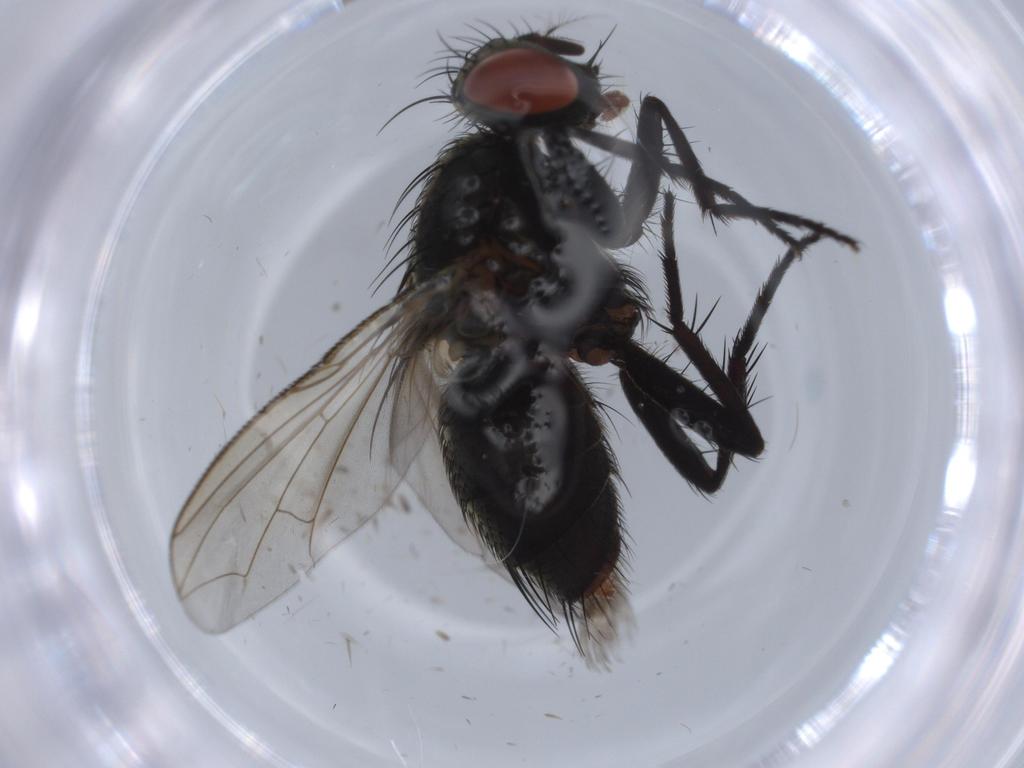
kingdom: Animalia
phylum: Arthropoda
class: Insecta
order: Diptera
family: Sarcophagidae
